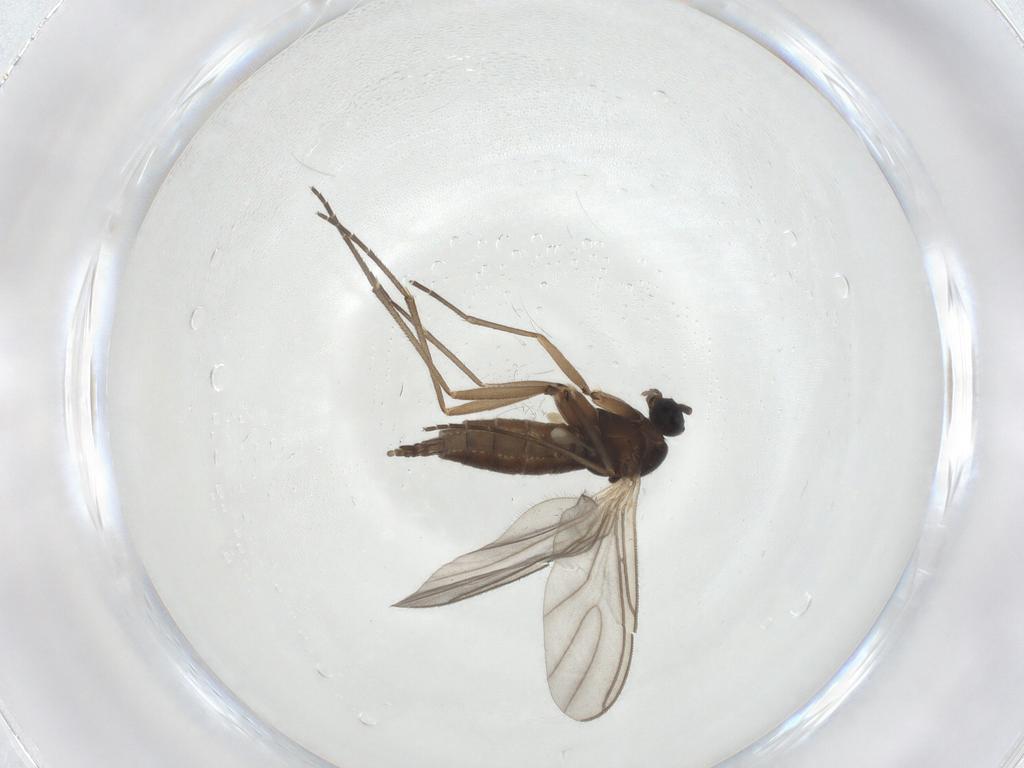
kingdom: Animalia
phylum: Arthropoda
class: Insecta
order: Diptera
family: Sciaridae
